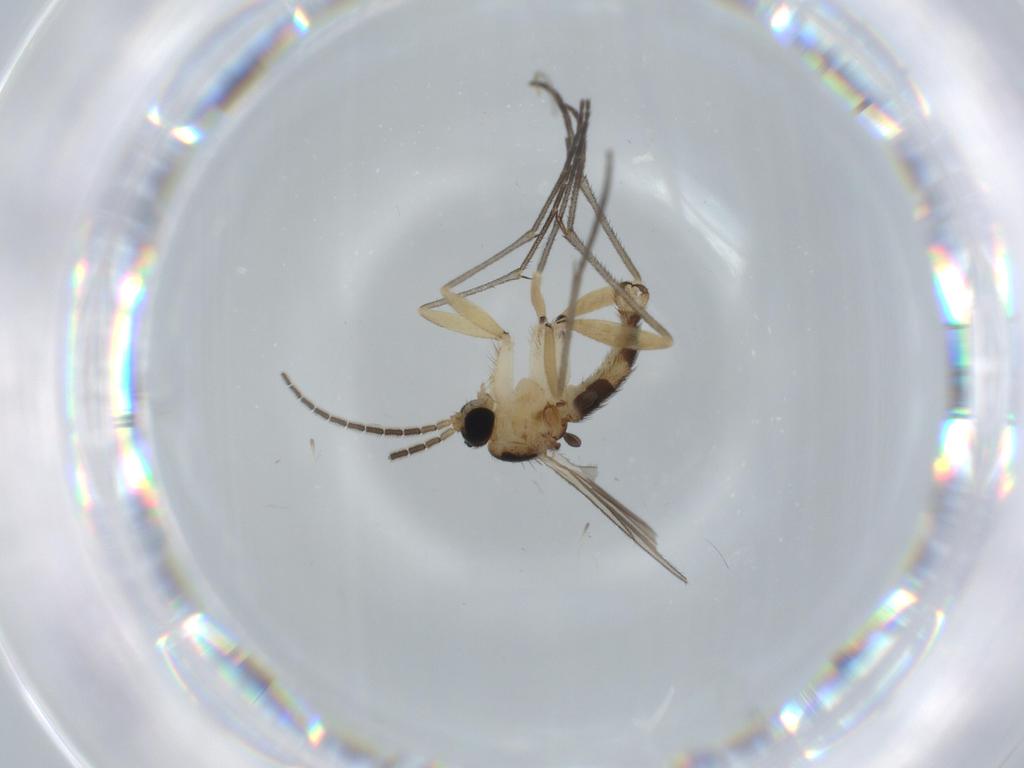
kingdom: Animalia
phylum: Arthropoda
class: Insecta
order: Diptera
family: Sciaridae
